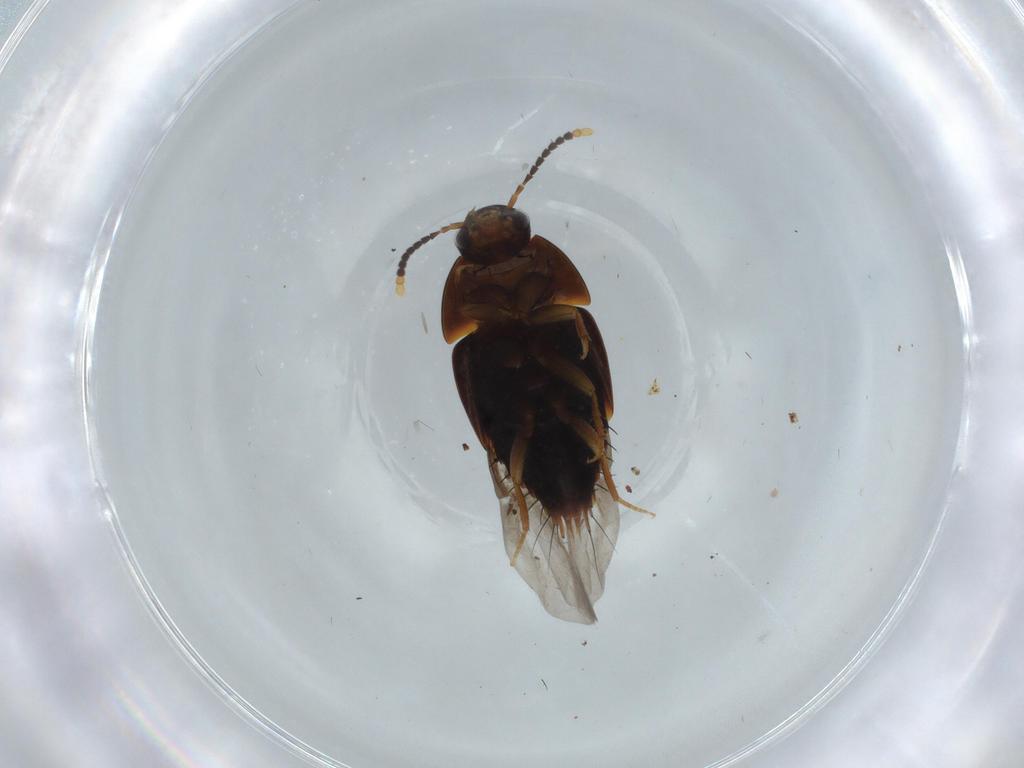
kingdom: Animalia
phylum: Arthropoda
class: Insecta
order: Coleoptera
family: Staphylinidae
